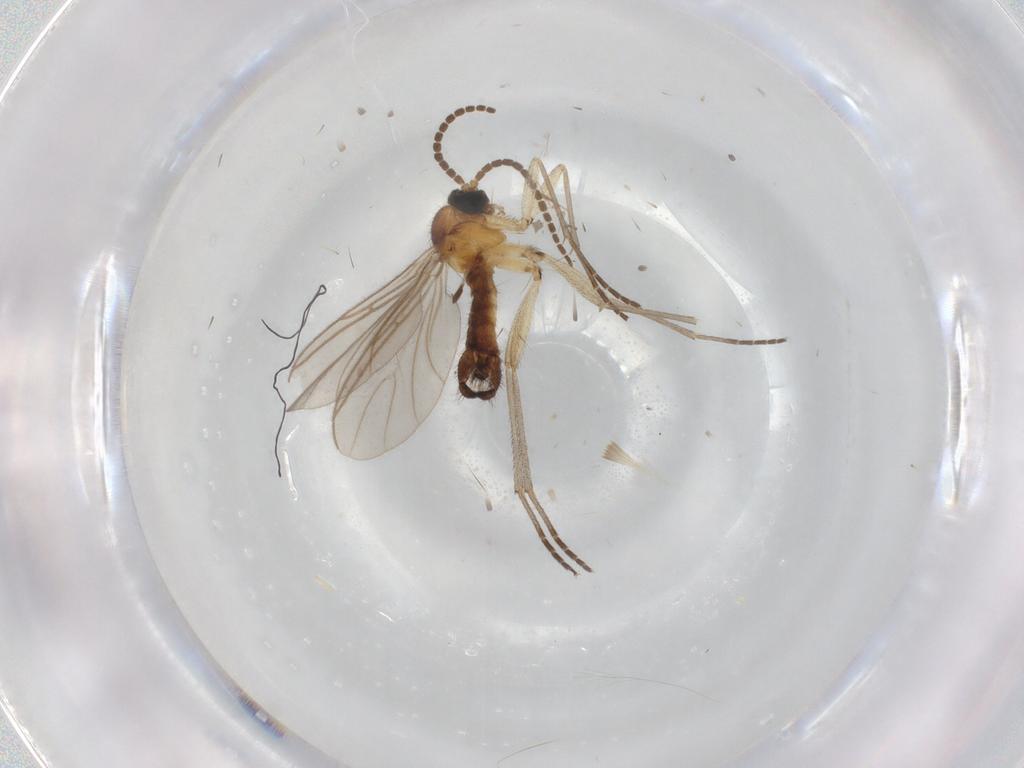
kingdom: Animalia
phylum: Arthropoda
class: Insecta
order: Diptera
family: Sciaridae
